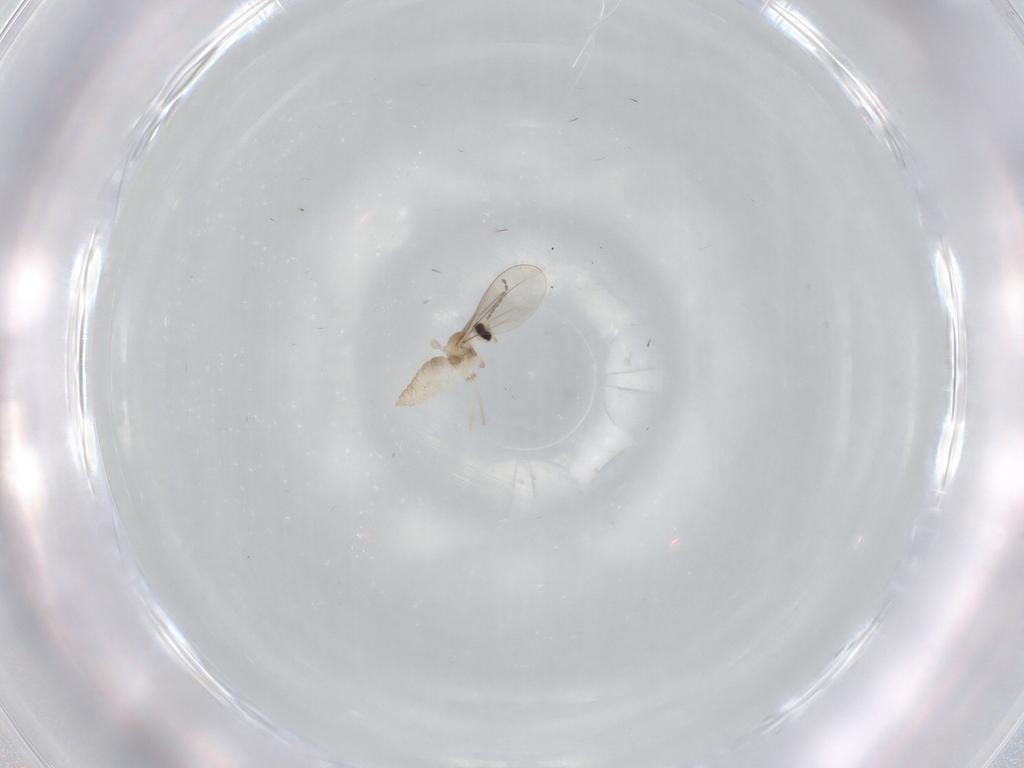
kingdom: Animalia
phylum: Arthropoda
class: Insecta
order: Diptera
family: Cecidomyiidae
